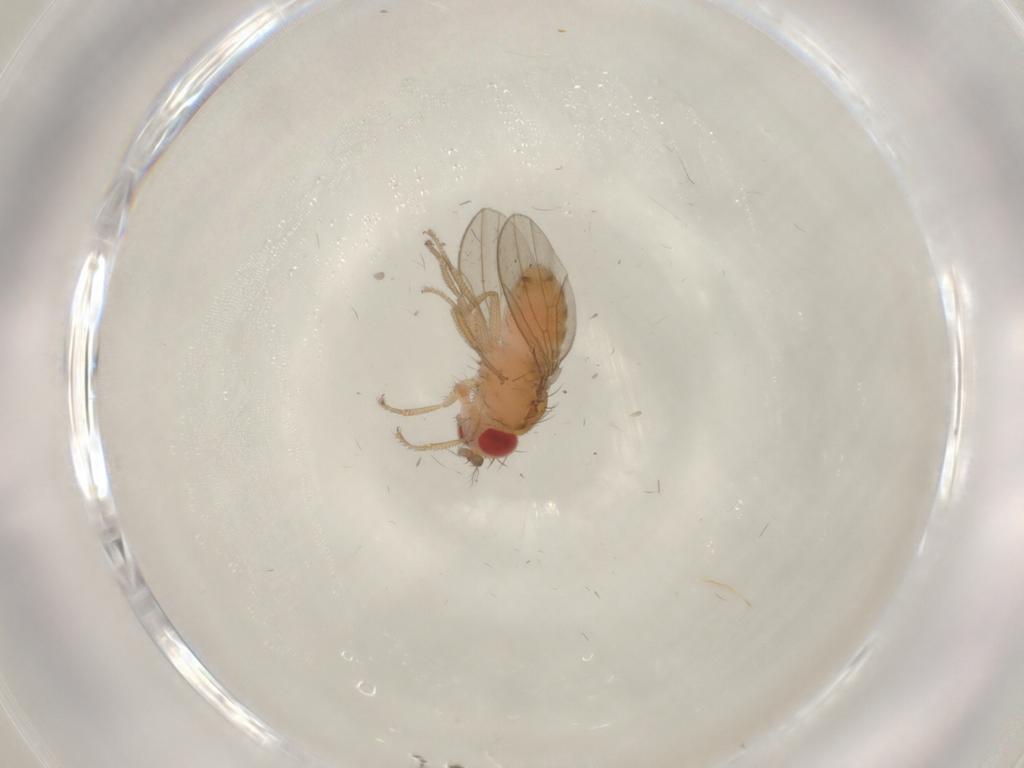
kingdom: Animalia
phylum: Arthropoda
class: Insecta
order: Diptera
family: Drosophilidae
